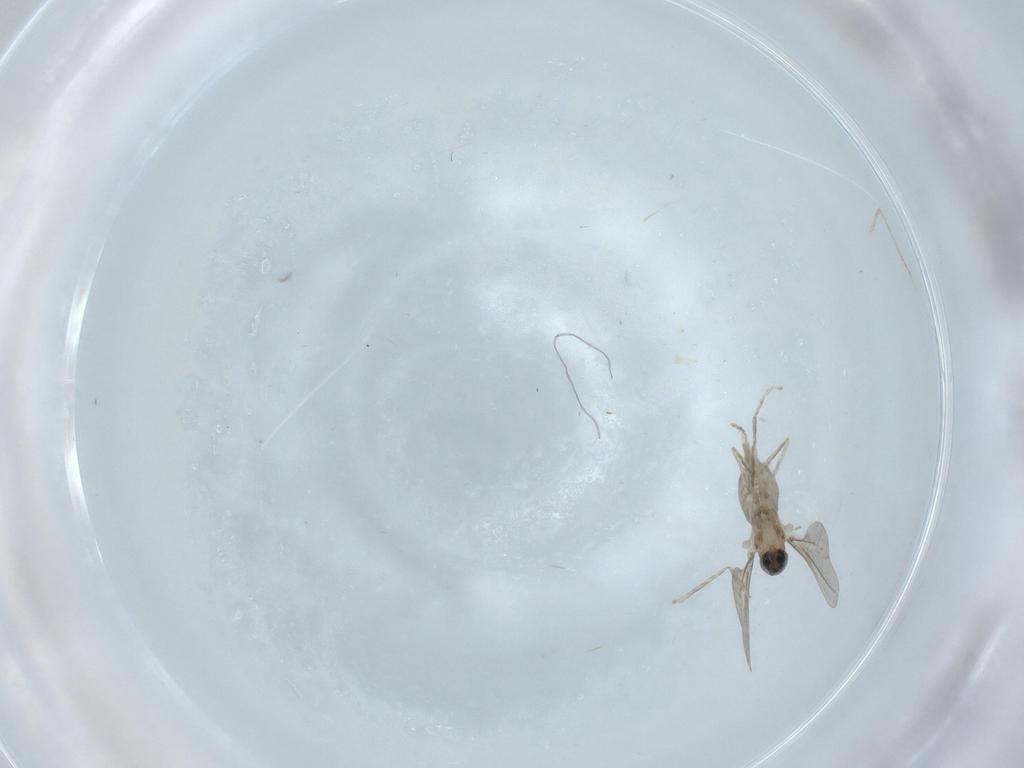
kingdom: Animalia
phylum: Arthropoda
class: Insecta
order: Diptera
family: Cecidomyiidae
